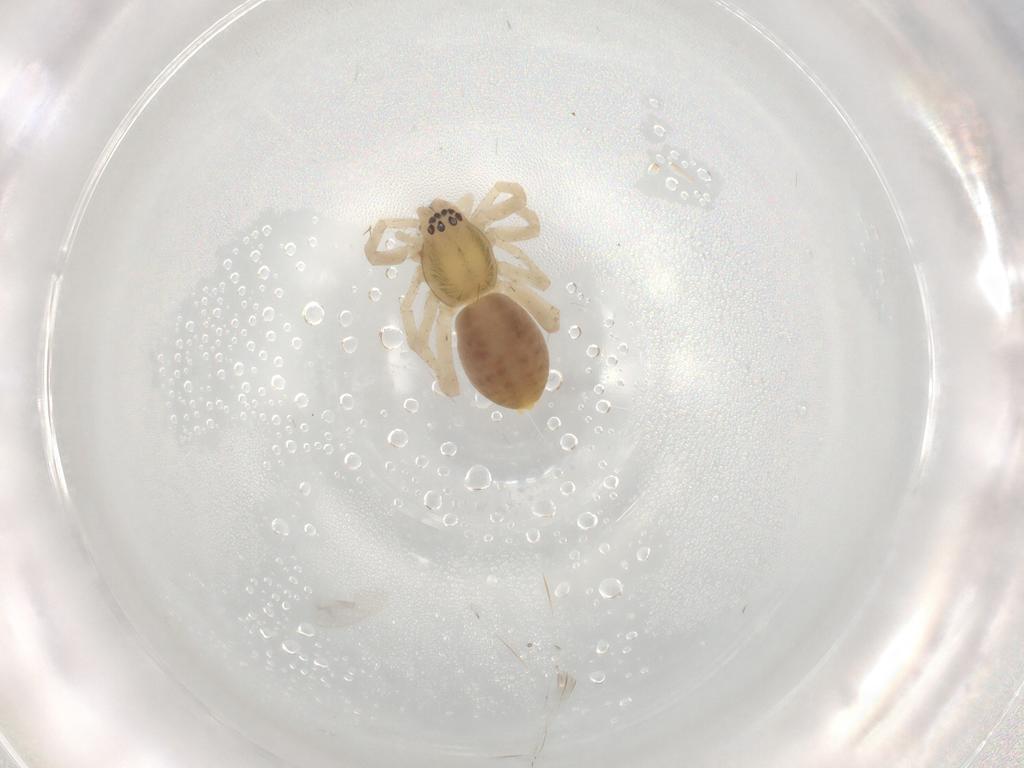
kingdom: Animalia
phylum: Arthropoda
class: Arachnida
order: Araneae
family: Anyphaenidae
